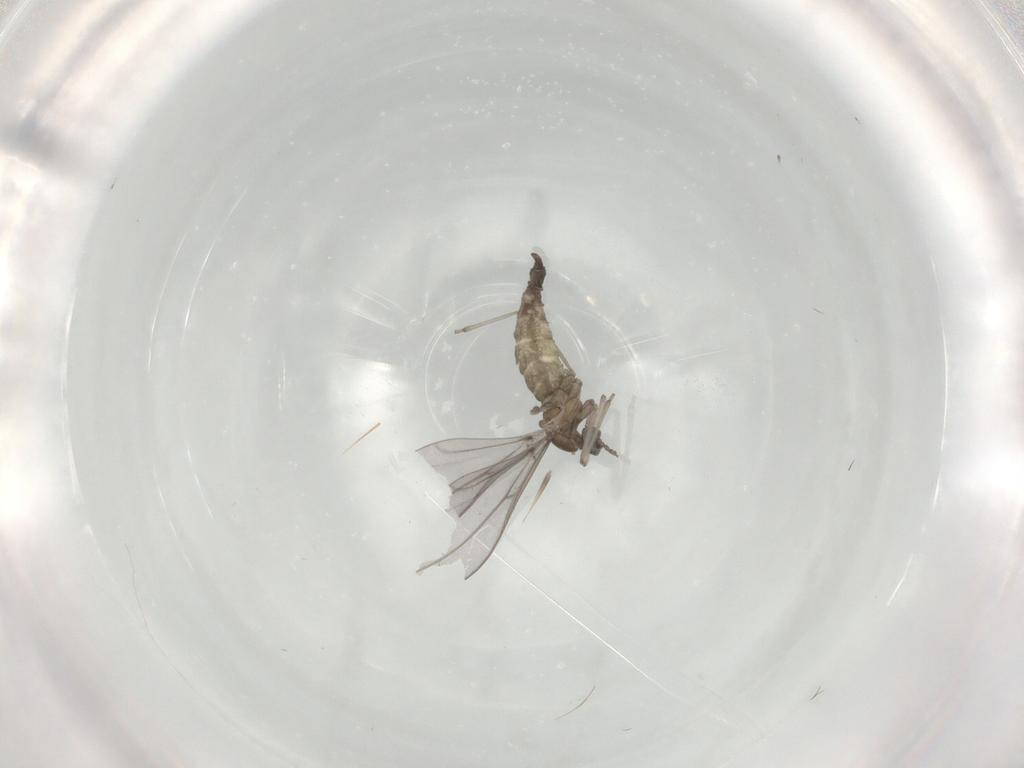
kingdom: Animalia
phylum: Arthropoda
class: Insecta
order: Diptera
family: Cecidomyiidae
